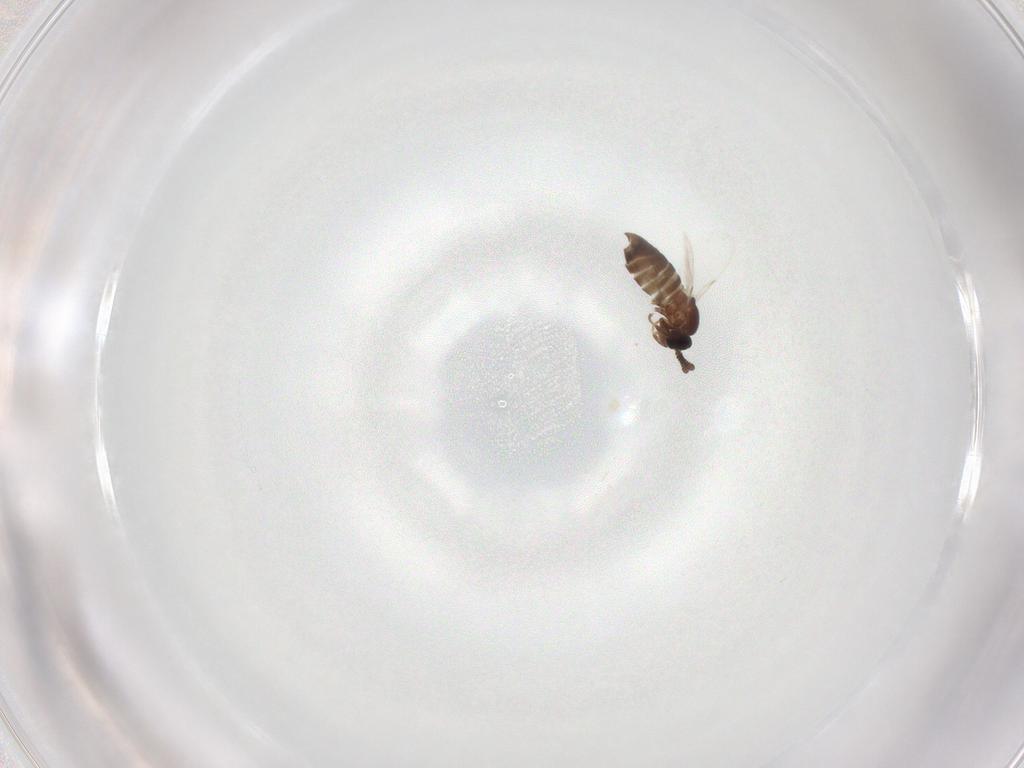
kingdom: Animalia
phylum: Arthropoda
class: Insecta
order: Diptera
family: Scatopsidae
